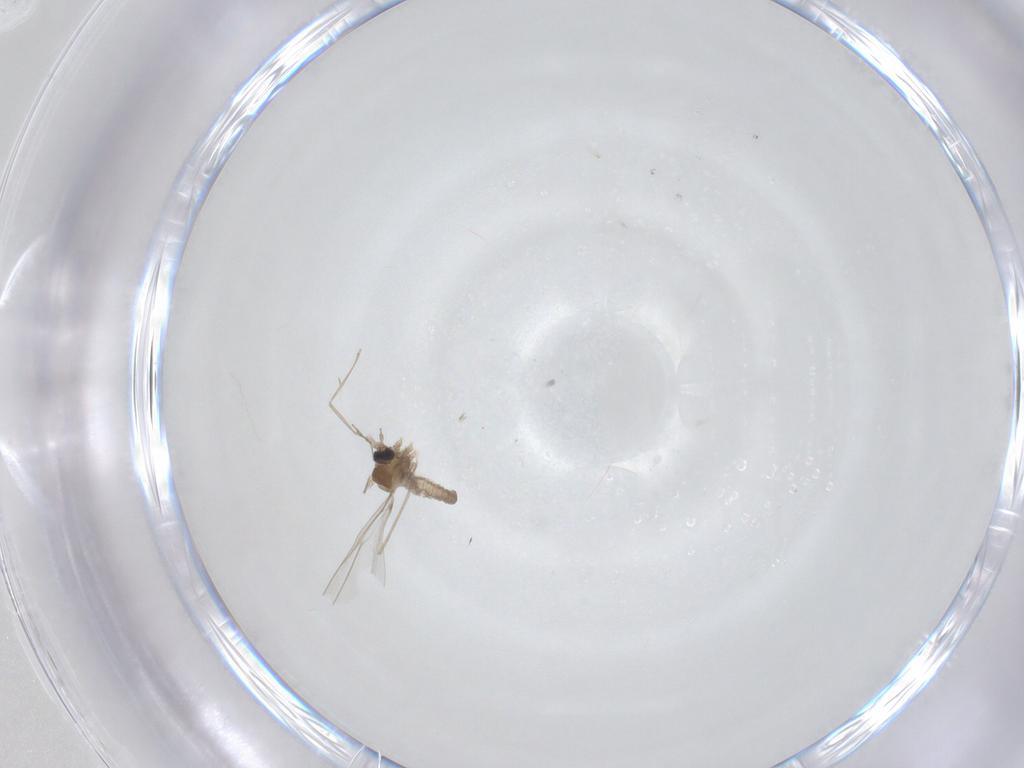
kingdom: Animalia
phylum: Arthropoda
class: Insecta
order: Diptera
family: Cecidomyiidae
